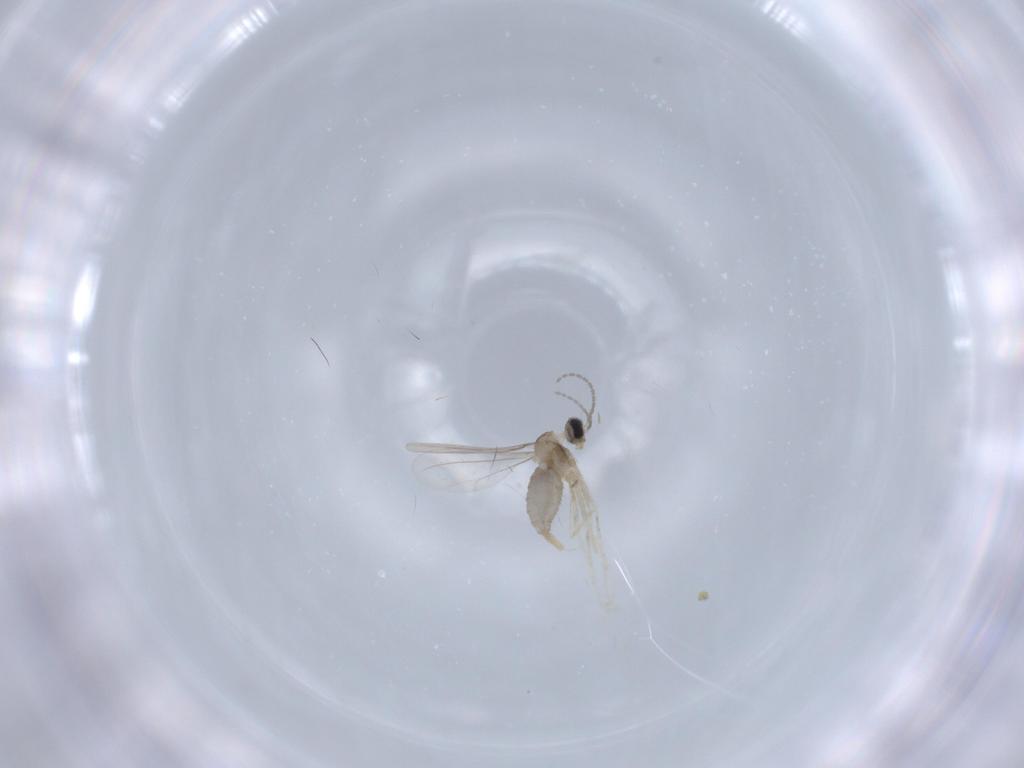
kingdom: Animalia
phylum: Arthropoda
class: Insecta
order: Diptera
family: Cecidomyiidae
